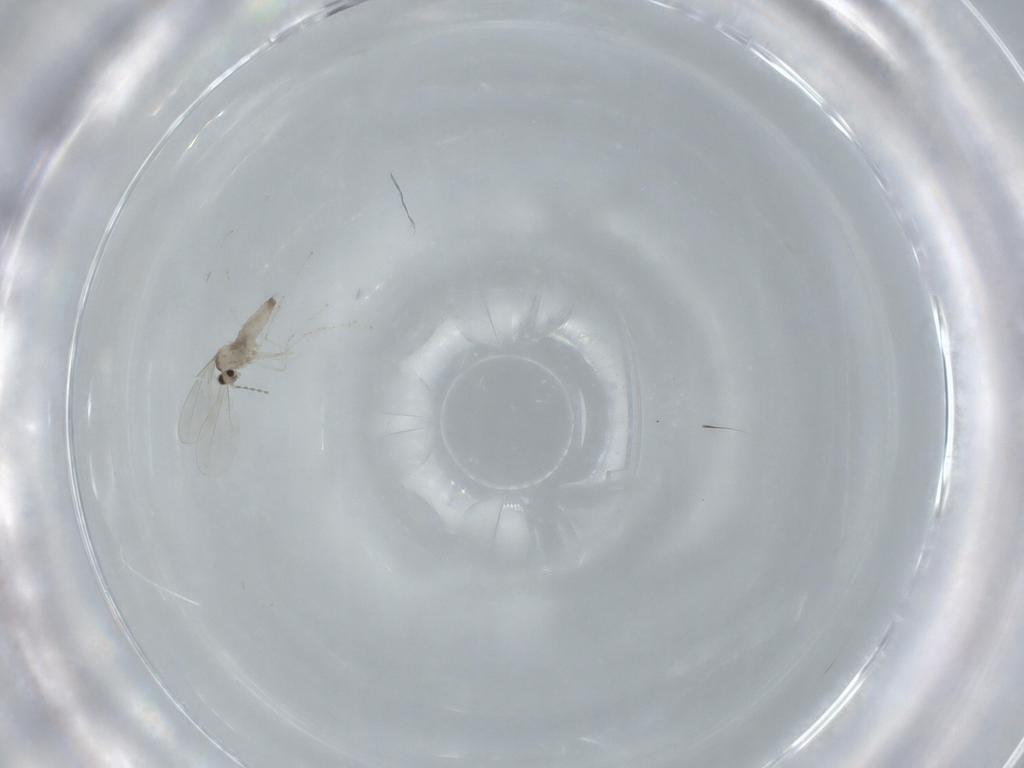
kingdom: Animalia
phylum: Arthropoda
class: Insecta
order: Diptera
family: Cecidomyiidae
